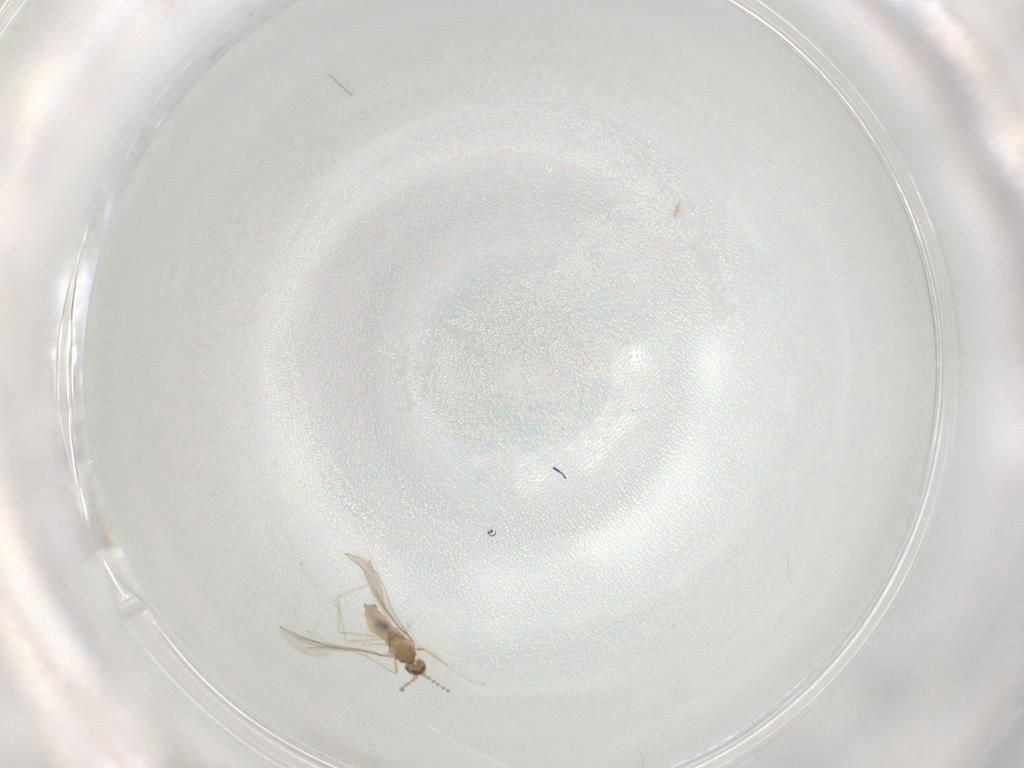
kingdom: Animalia
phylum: Arthropoda
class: Insecta
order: Diptera
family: Cecidomyiidae
